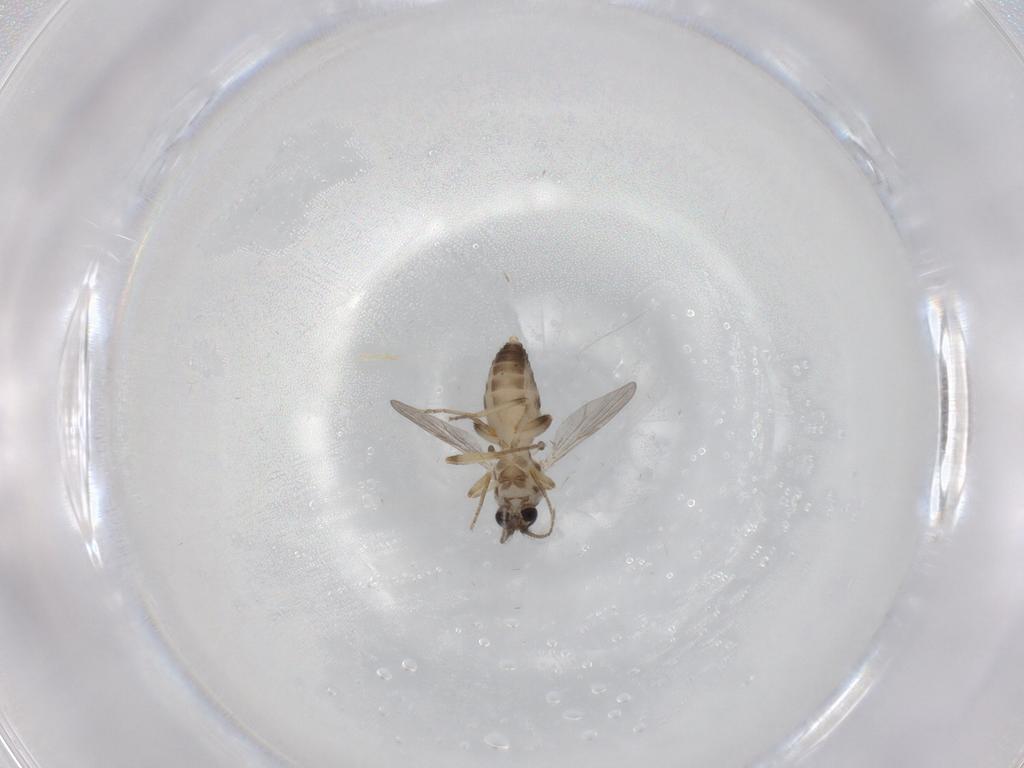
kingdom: Animalia
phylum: Arthropoda
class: Insecta
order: Diptera
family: Ceratopogonidae
